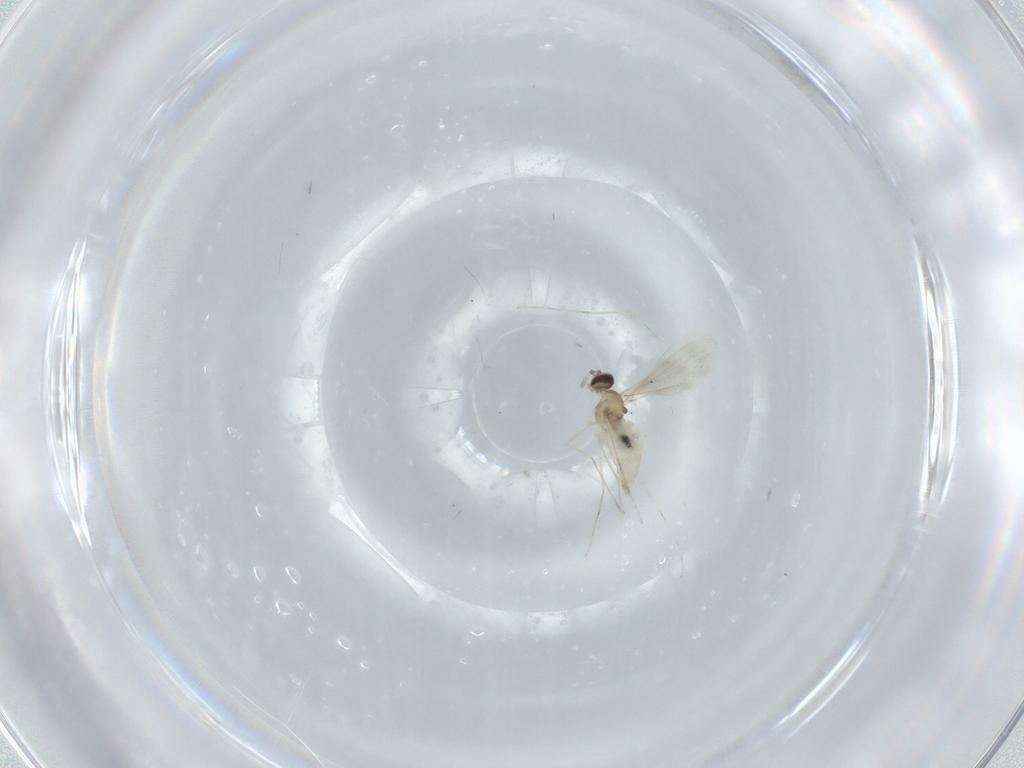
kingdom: Animalia
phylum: Arthropoda
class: Insecta
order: Diptera
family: Cecidomyiidae
